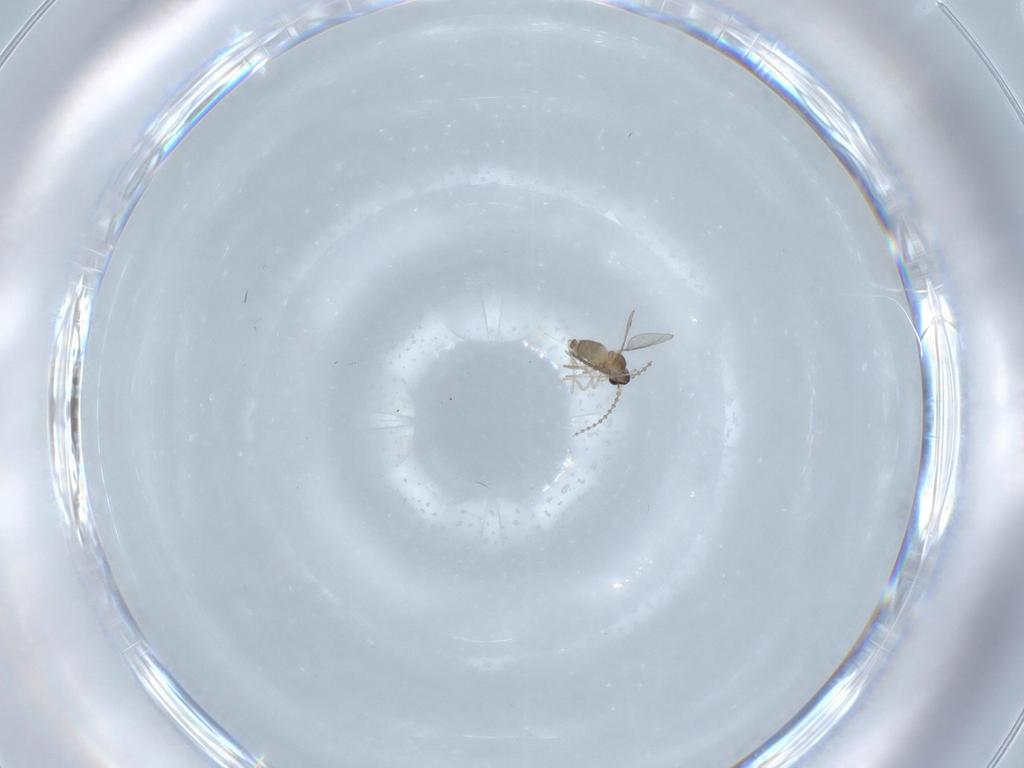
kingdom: Animalia
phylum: Arthropoda
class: Insecta
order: Diptera
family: Cecidomyiidae
